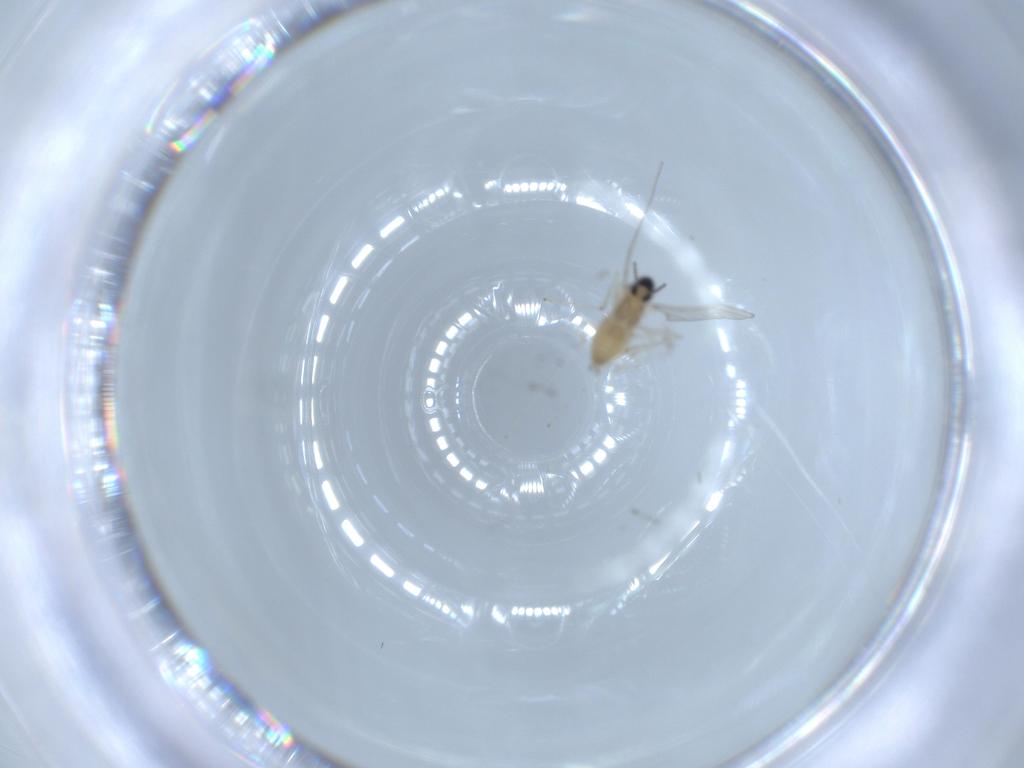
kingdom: Animalia
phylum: Arthropoda
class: Insecta
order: Diptera
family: Cecidomyiidae
